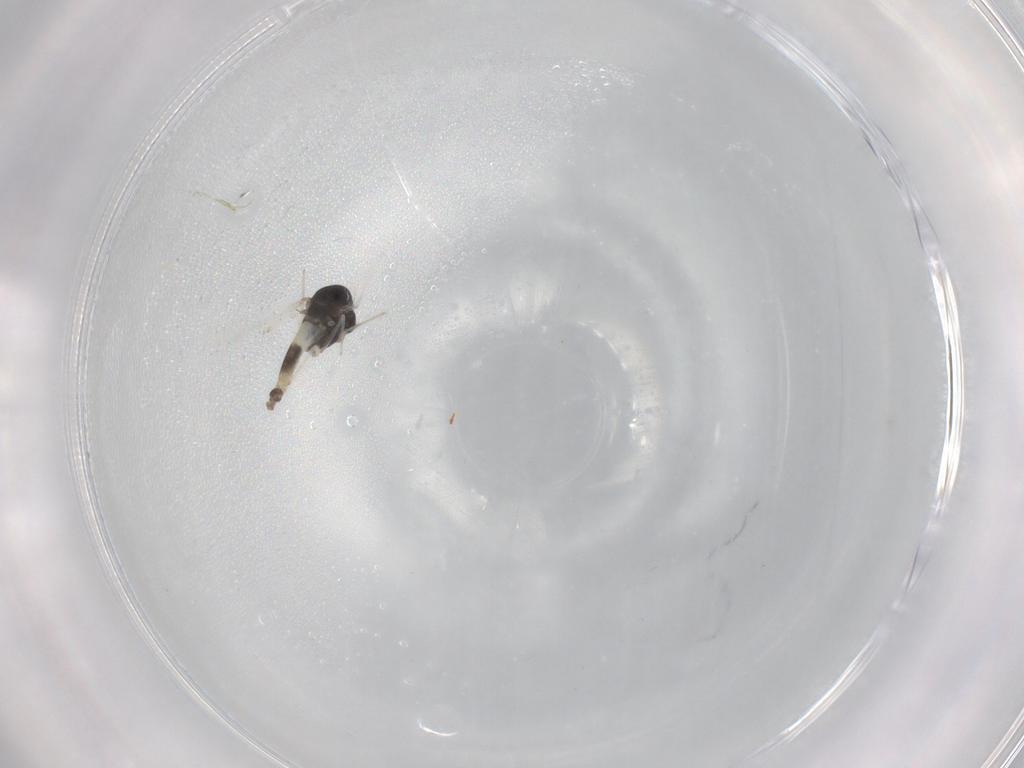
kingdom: Animalia
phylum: Arthropoda
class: Insecta
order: Diptera
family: Chironomidae
